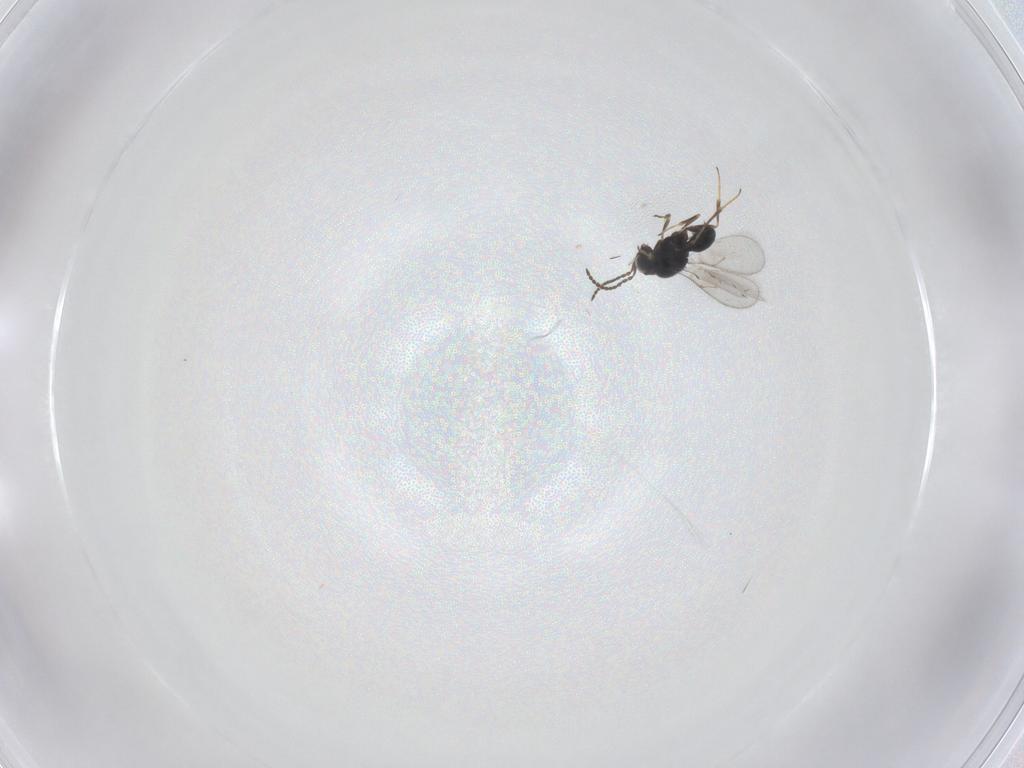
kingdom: Animalia
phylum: Arthropoda
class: Insecta
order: Hymenoptera
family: Scelionidae
